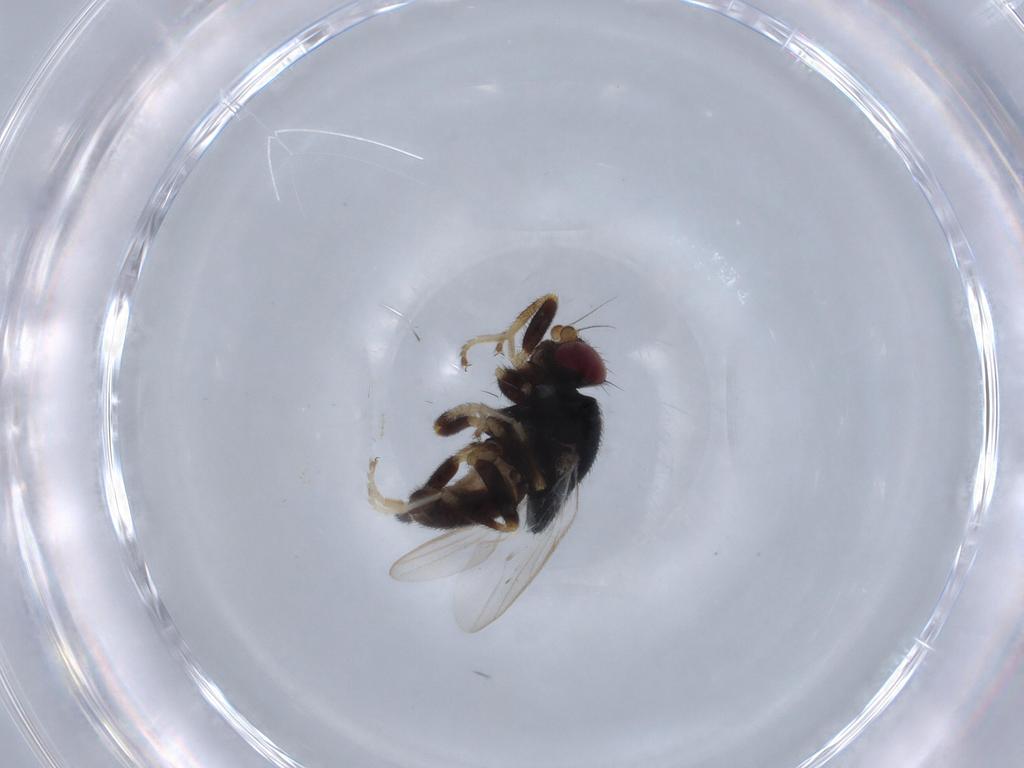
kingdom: Animalia
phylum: Arthropoda
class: Insecta
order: Diptera
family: Chloropidae
